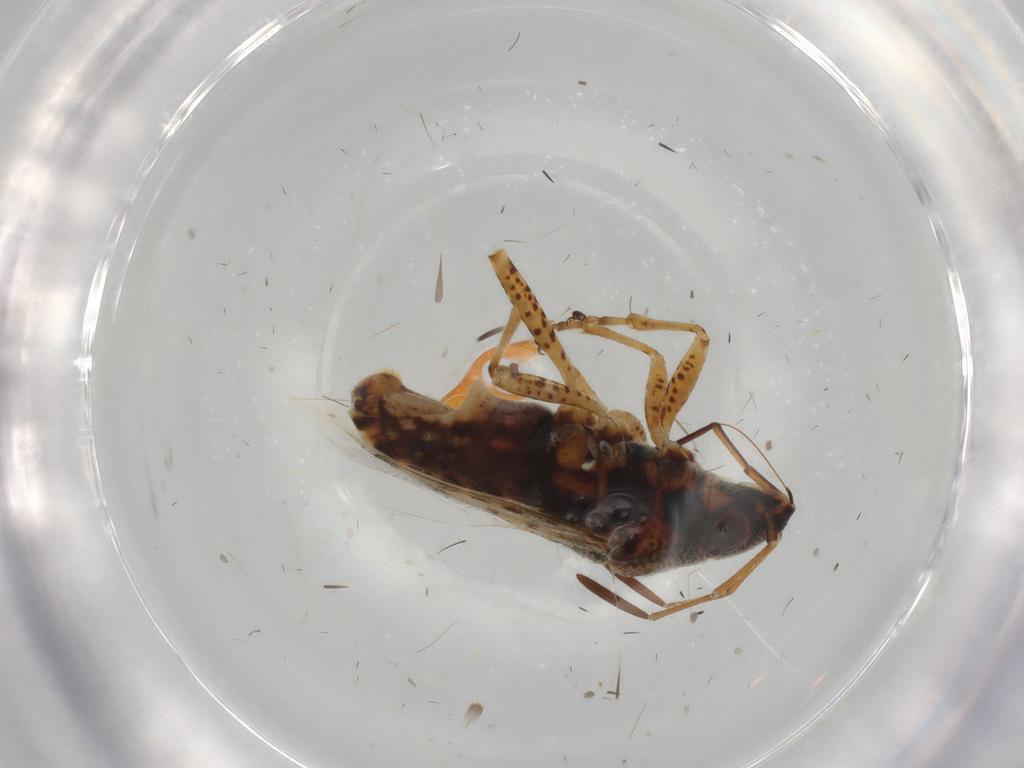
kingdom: Animalia
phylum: Arthropoda
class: Insecta
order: Hemiptera
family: Lygaeidae
